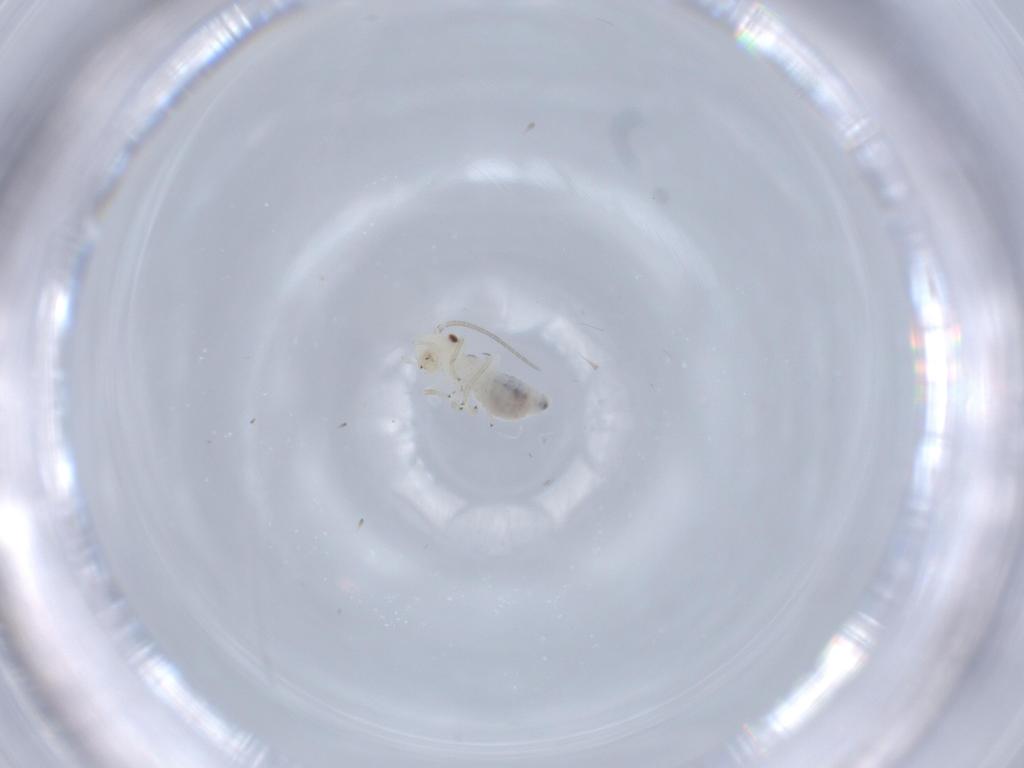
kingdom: Animalia
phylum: Arthropoda
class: Insecta
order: Psocodea
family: Caeciliusidae
